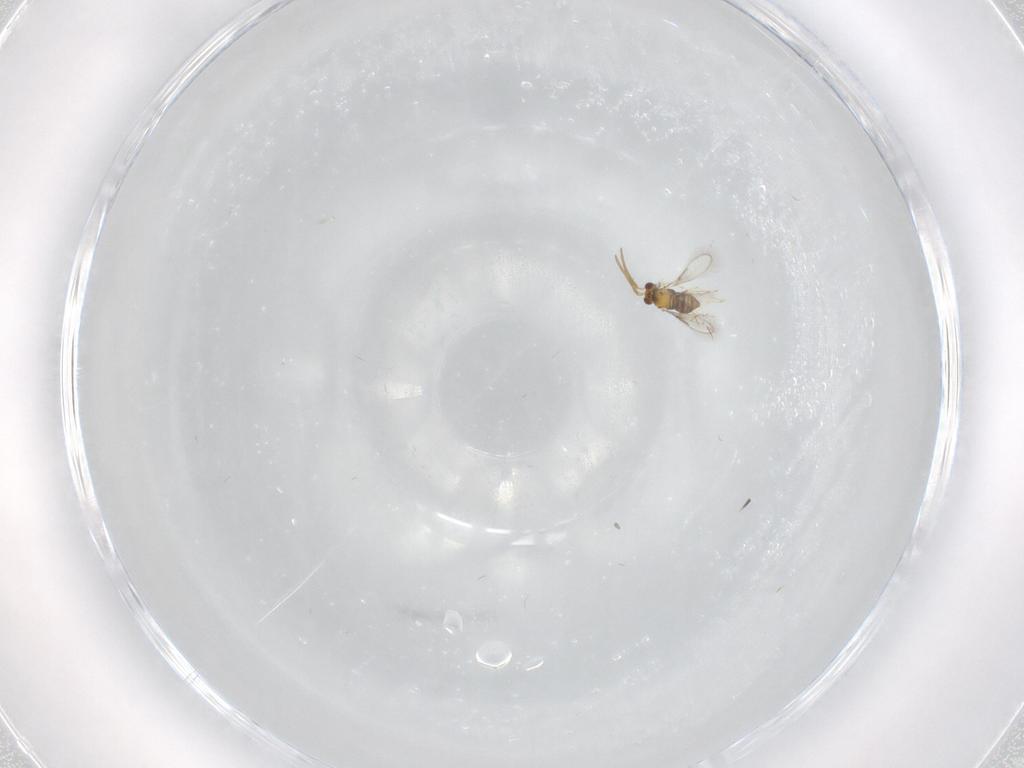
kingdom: Animalia
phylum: Arthropoda
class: Insecta
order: Hymenoptera
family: Aphelinidae
